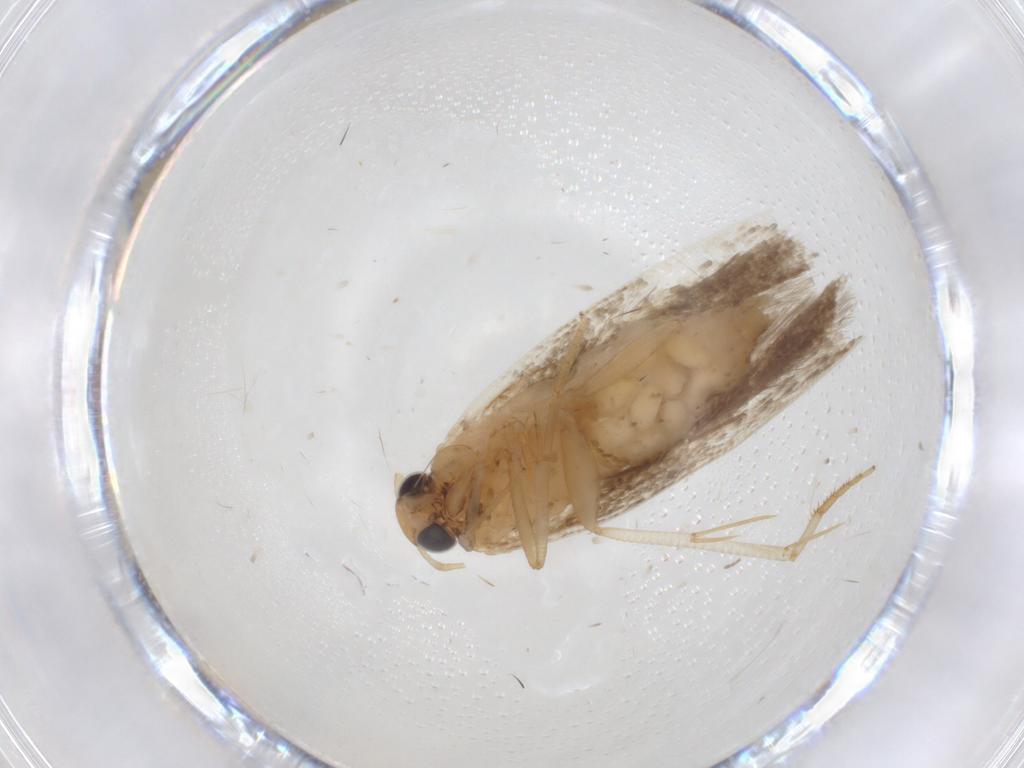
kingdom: Animalia
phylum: Arthropoda
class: Insecta
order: Lepidoptera
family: Gelechiidae
